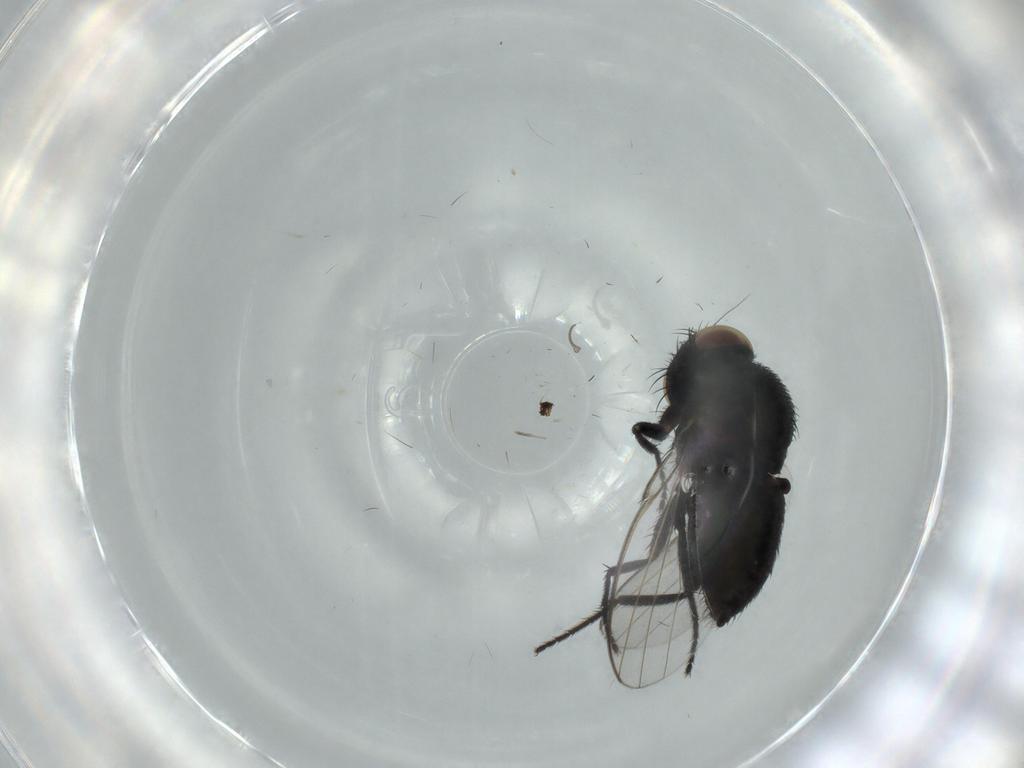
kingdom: Animalia
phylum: Arthropoda
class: Insecta
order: Diptera
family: Cecidomyiidae
